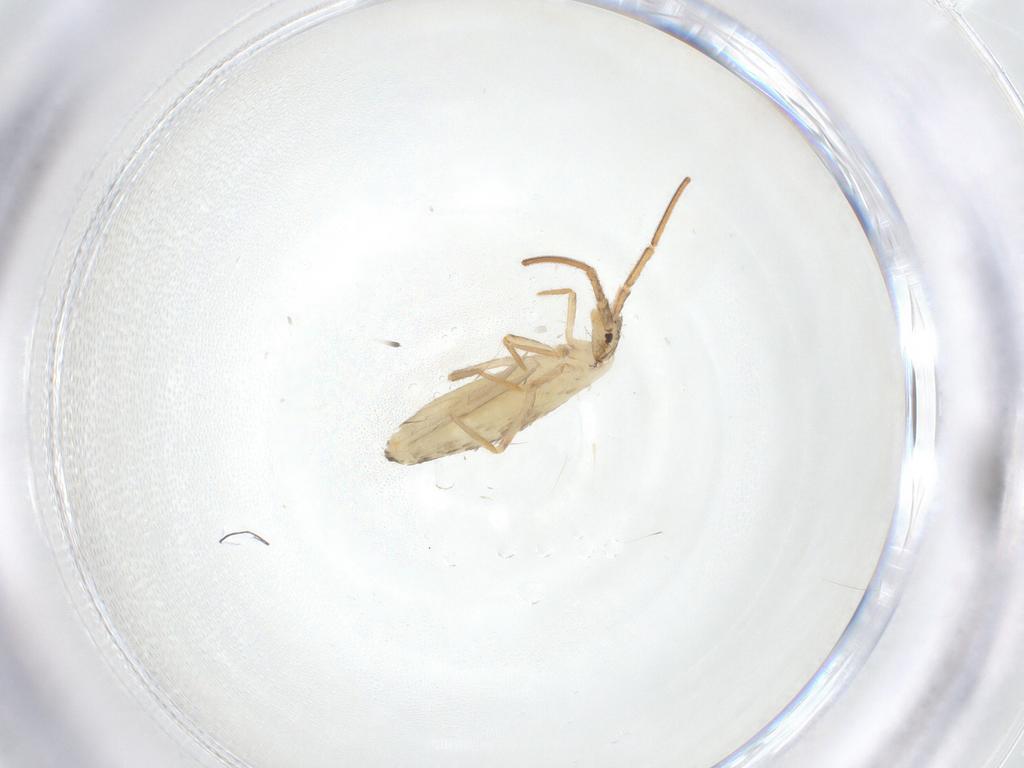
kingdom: Animalia
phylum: Arthropoda
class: Collembola
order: Entomobryomorpha
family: Entomobryidae
